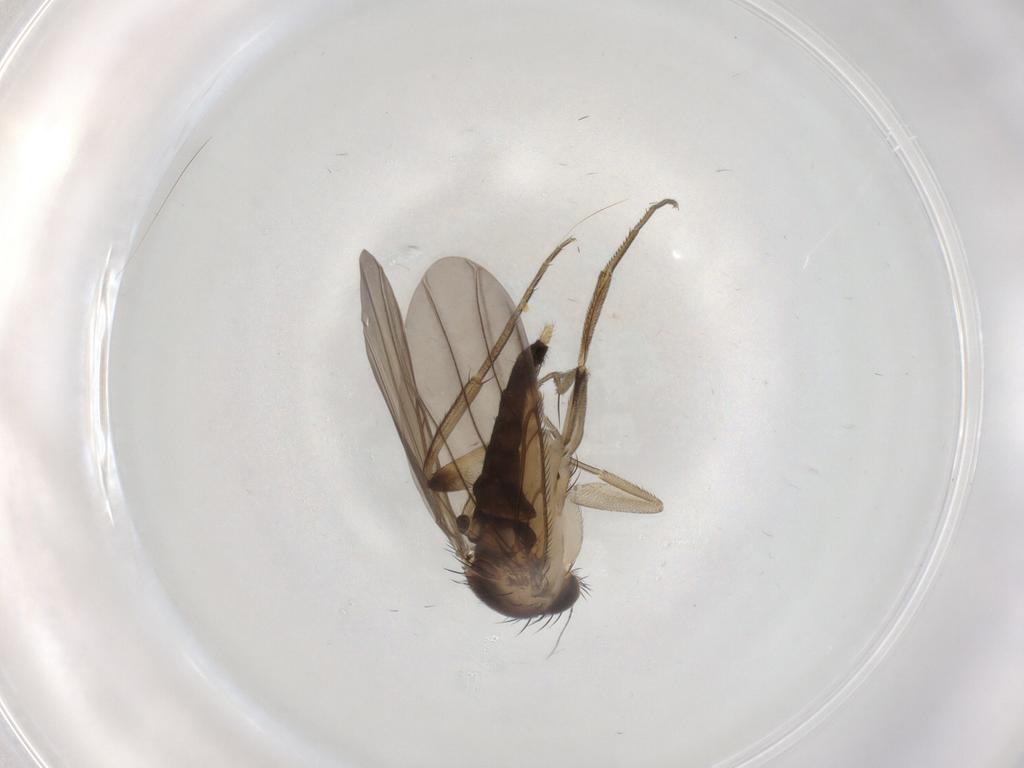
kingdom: Animalia
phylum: Arthropoda
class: Insecta
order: Diptera
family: Phoridae
